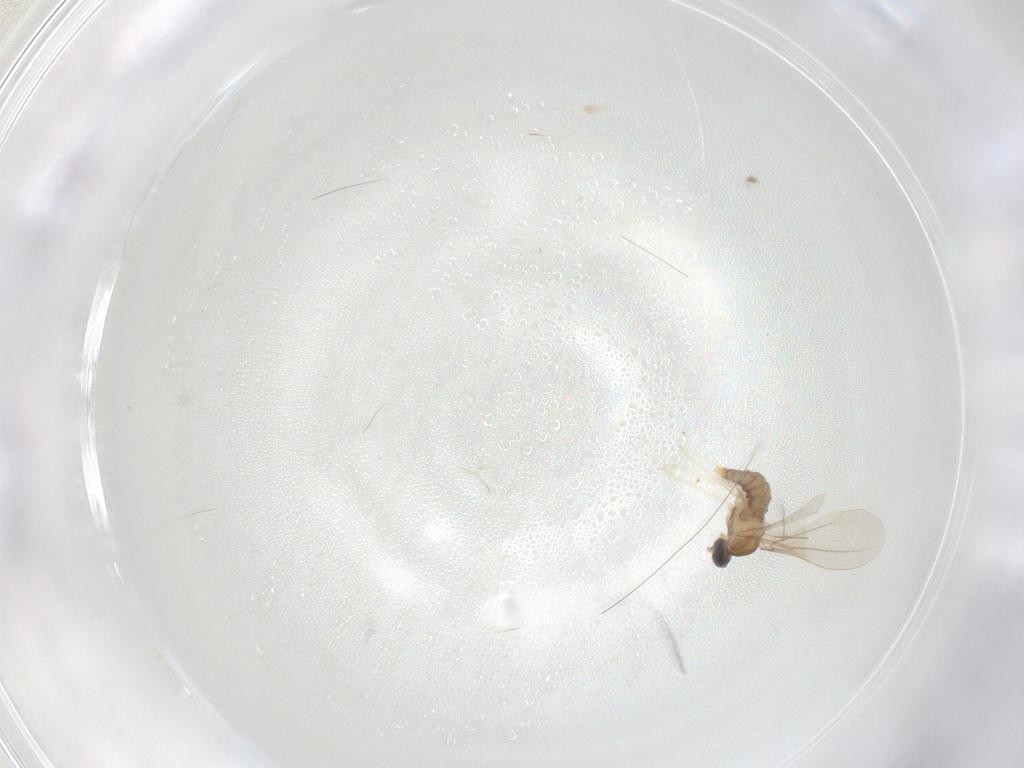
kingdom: Animalia
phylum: Arthropoda
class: Insecta
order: Diptera
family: Cecidomyiidae
